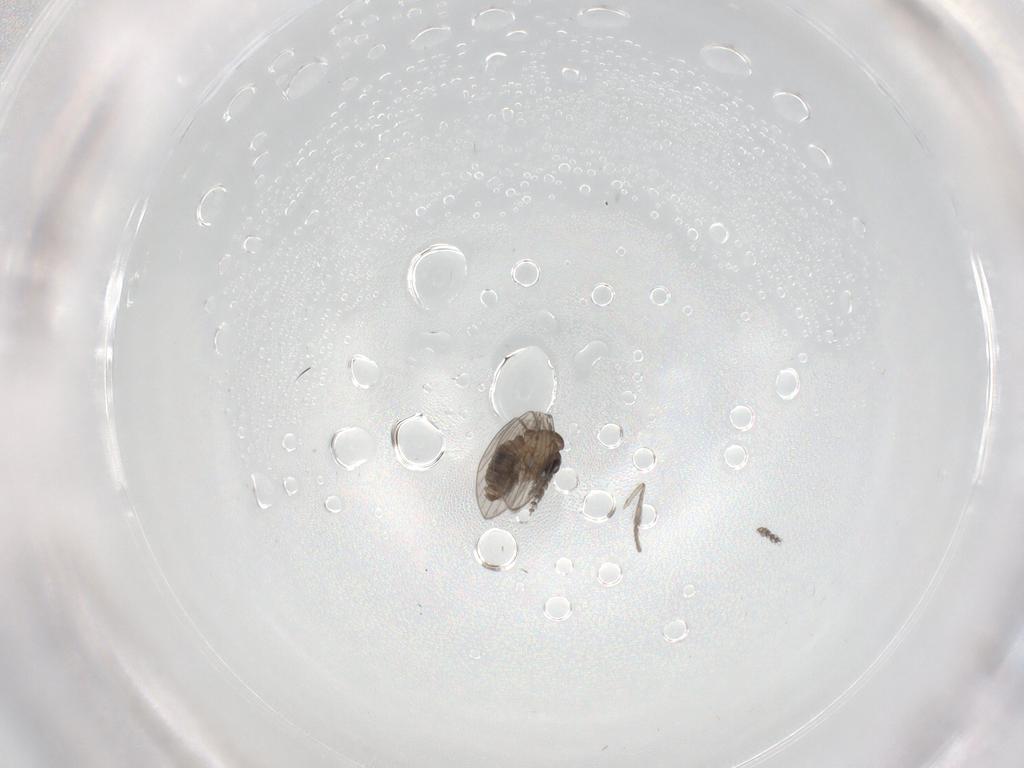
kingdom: Animalia
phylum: Arthropoda
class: Insecta
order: Diptera
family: Psychodidae
